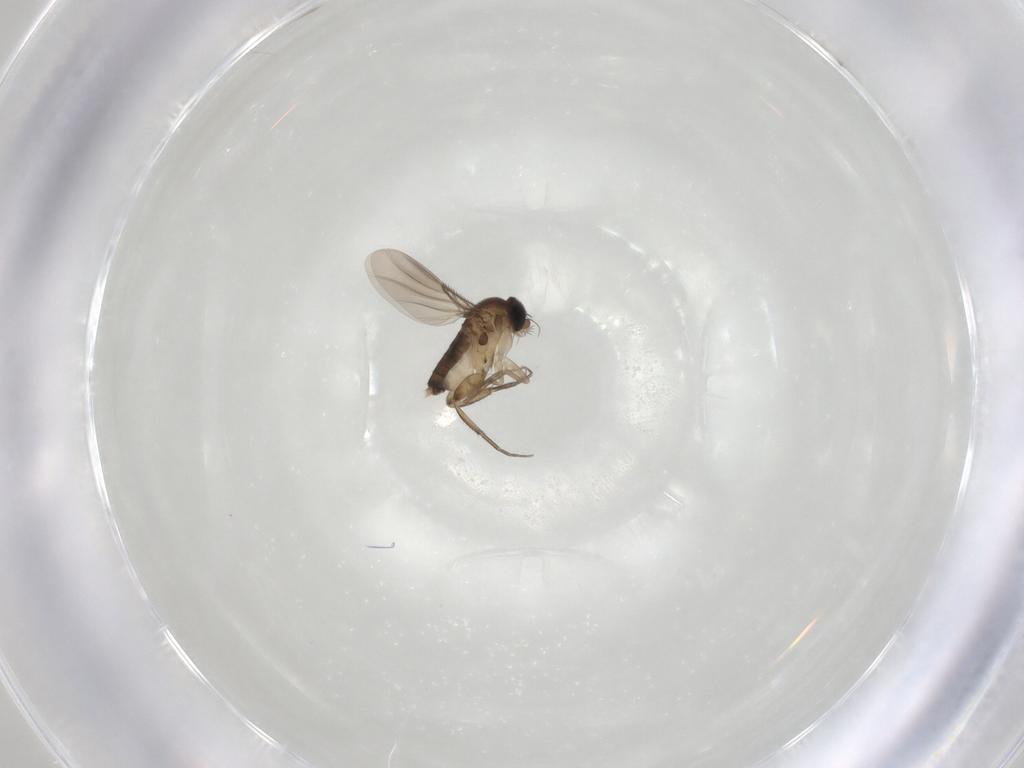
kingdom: Animalia
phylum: Arthropoda
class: Insecta
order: Diptera
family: Phoridae
